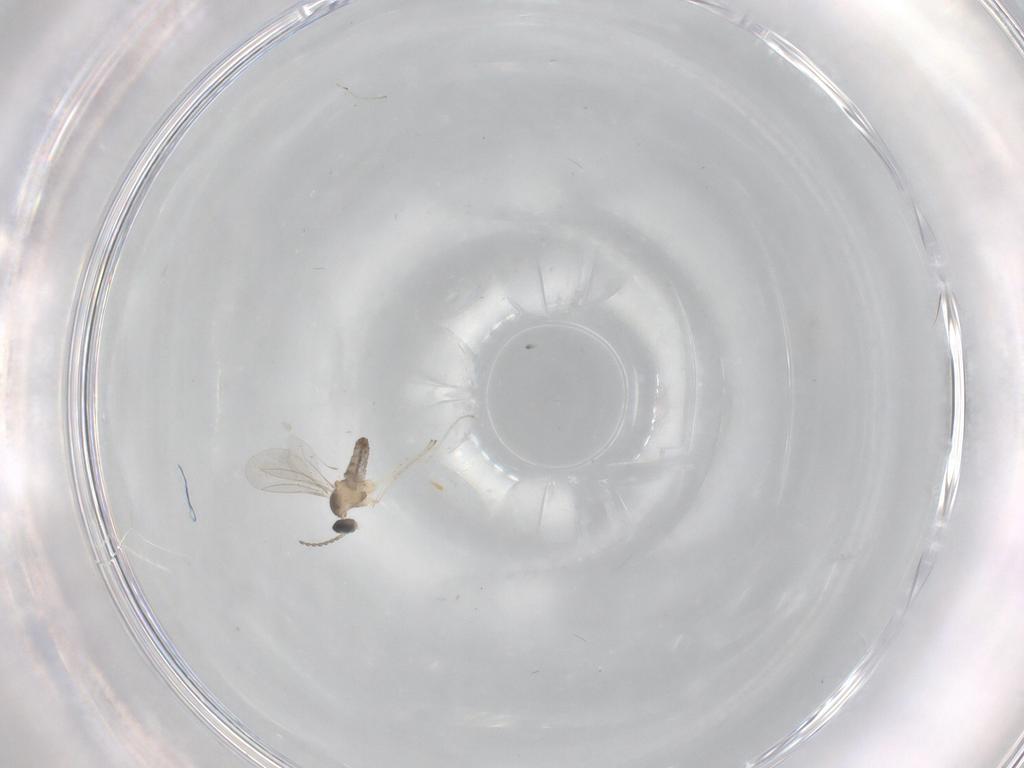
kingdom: Animalia
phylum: Arthropoda
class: Insecta
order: Diptera
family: Cecidomyiidae
